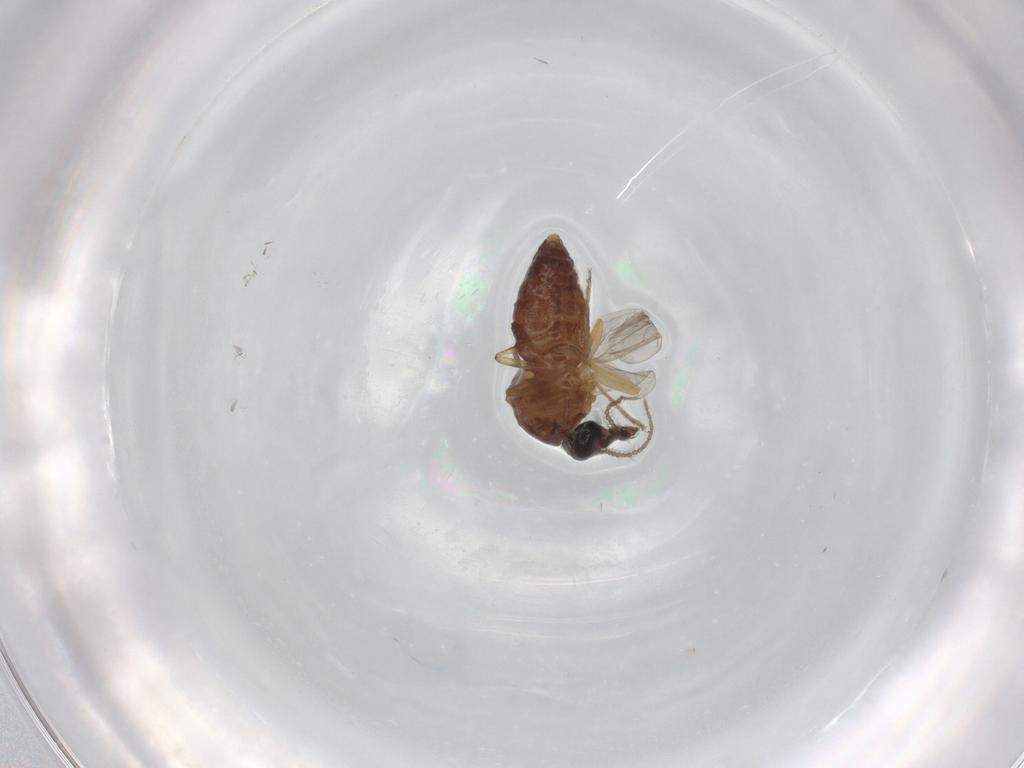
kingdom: Animalia
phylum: Arthropoda
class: Insecta
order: Diptera
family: Ceratopogonidae
